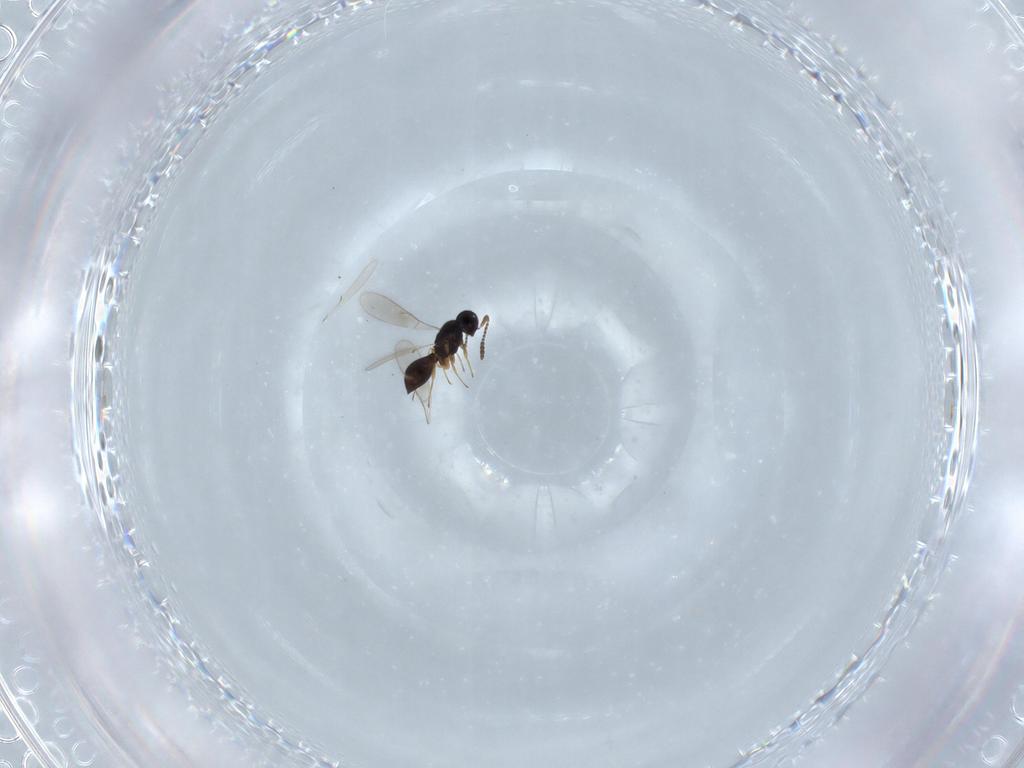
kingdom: Animalia
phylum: Arthropoda
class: Insecta
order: Hymenoptera
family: Scelionidae
